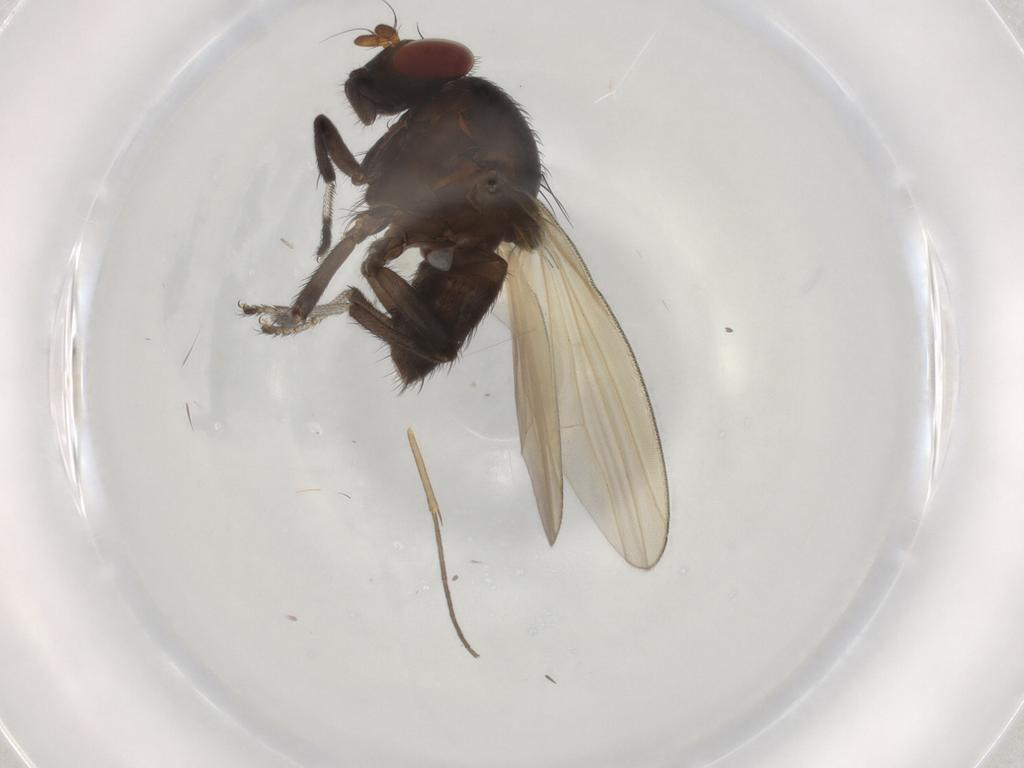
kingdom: Animalia
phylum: Arthropoda
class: Insecta
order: Diptera
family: Lauxaniidae
